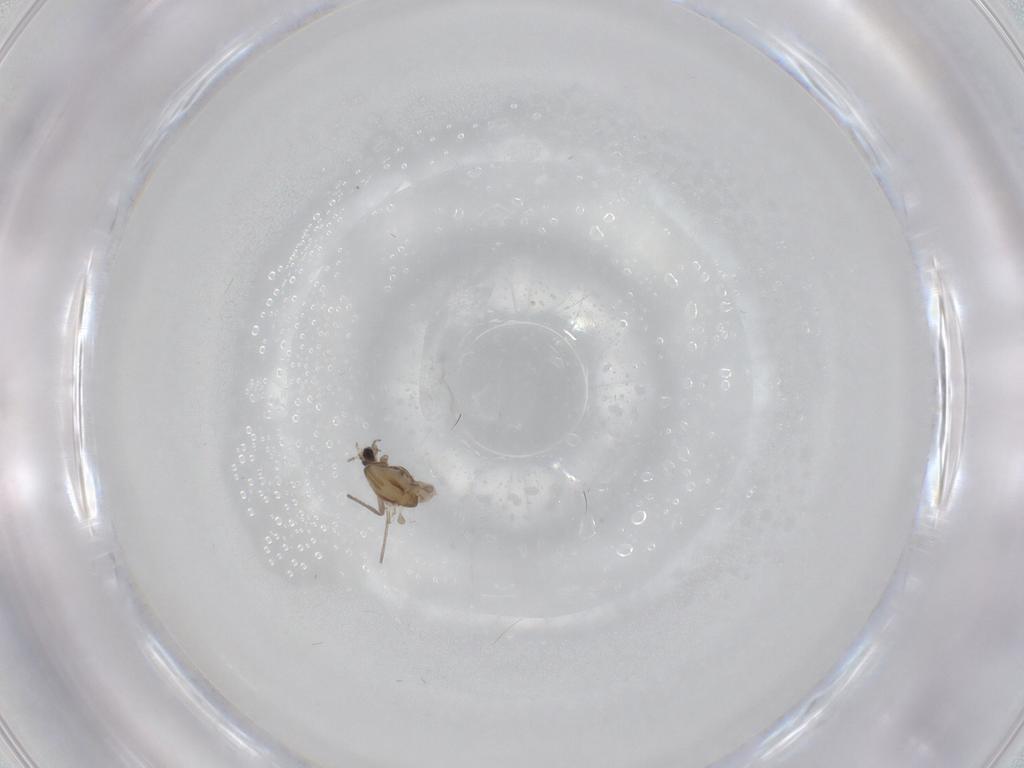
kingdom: Animalia
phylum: Arthropoda
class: Insecta
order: Diptera
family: Chironomidae
